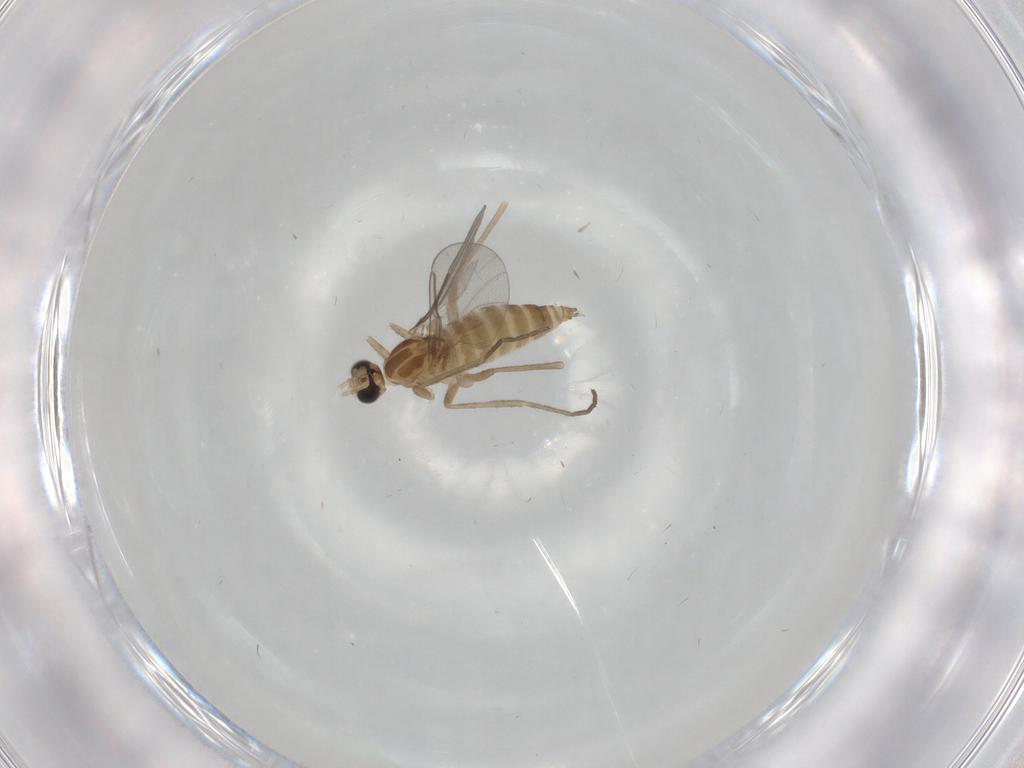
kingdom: Animalia
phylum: Arthropoda
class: Insecta
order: Diptera
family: Cecidomyiidae
